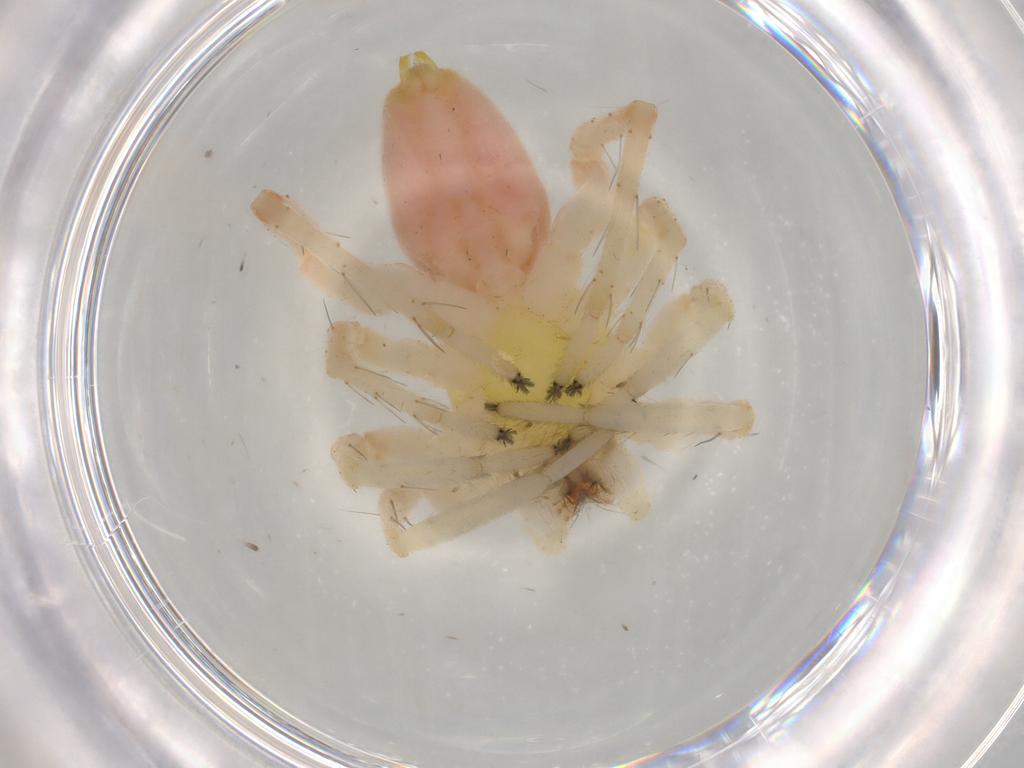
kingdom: Animalia
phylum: Arthropoda
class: Arachnida
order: Araneae
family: Anyphaenidae
